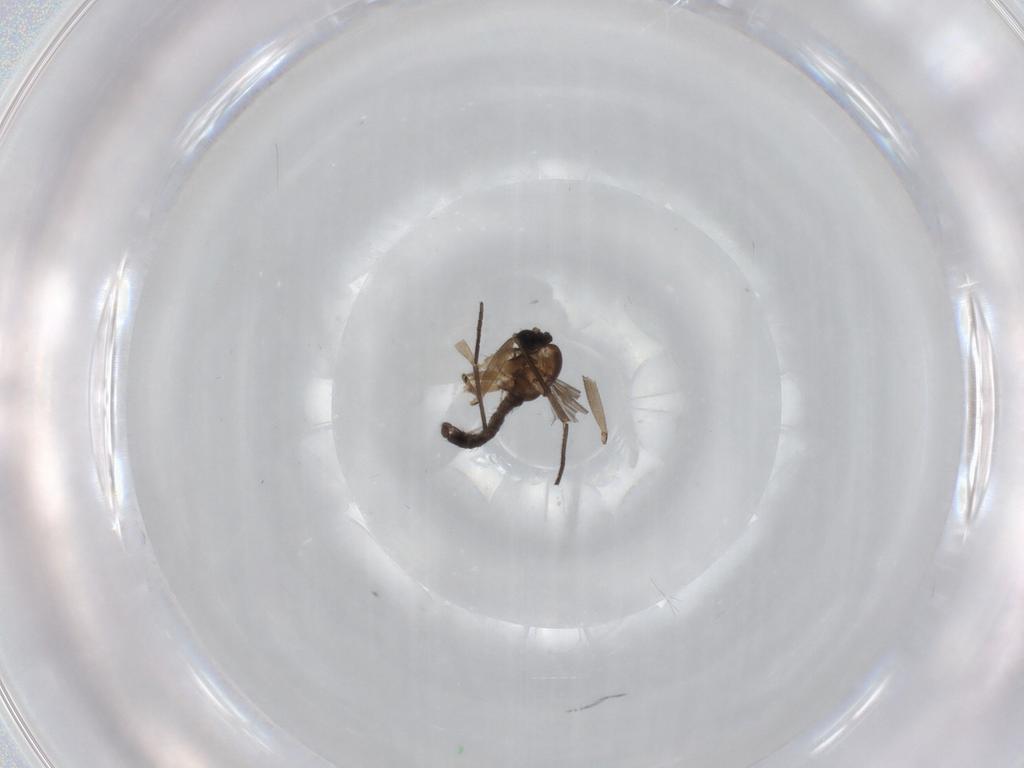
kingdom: Animalia
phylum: Arthropoda
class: Insecta
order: Diptera
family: Sciaridae
